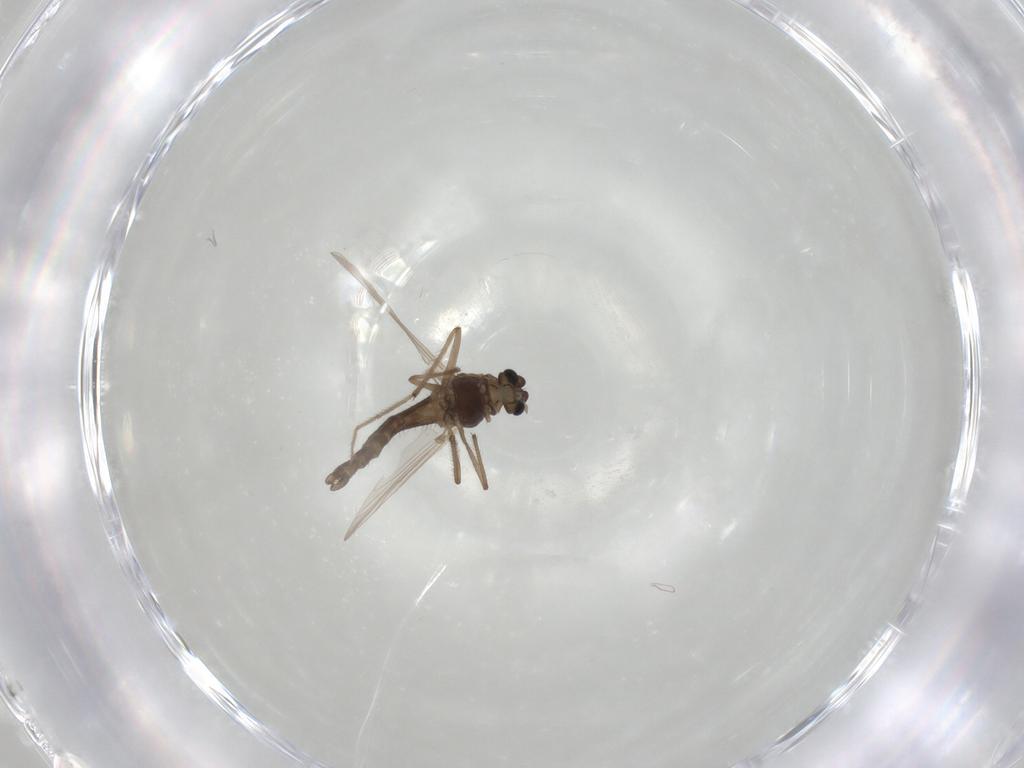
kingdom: Animalia
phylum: Arthropoda
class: Insecta
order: Diptera
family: Chironomidae
